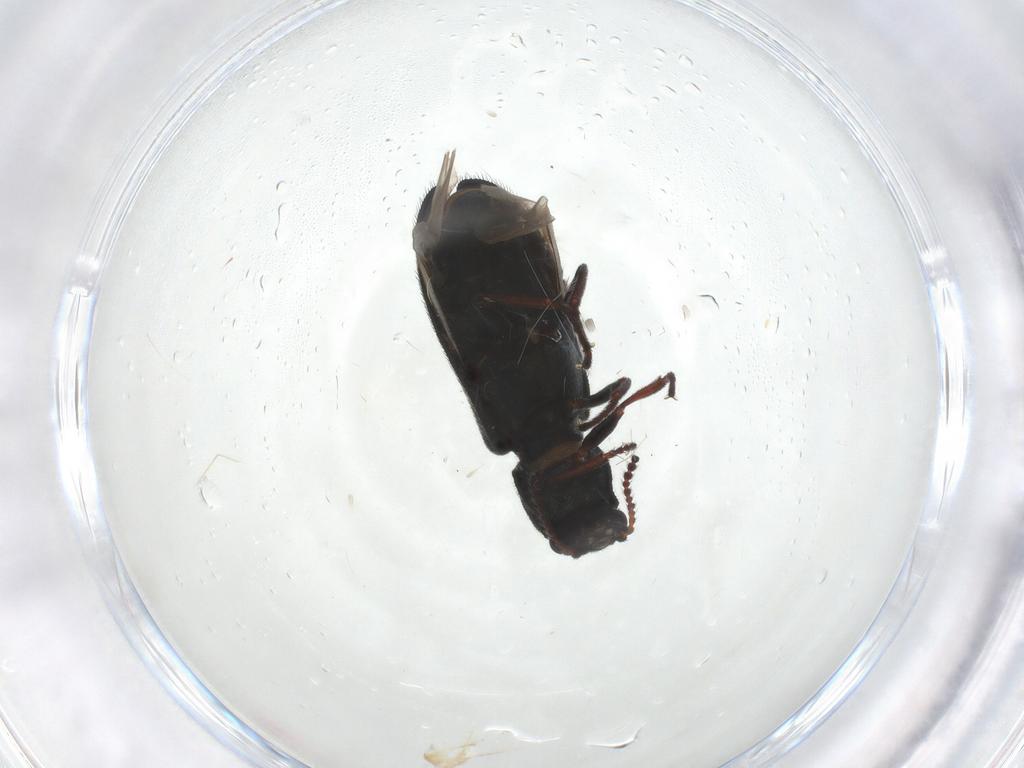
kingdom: Animalia
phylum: Arthropoda
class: Insecta
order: Coleoptera
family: Melyridae
